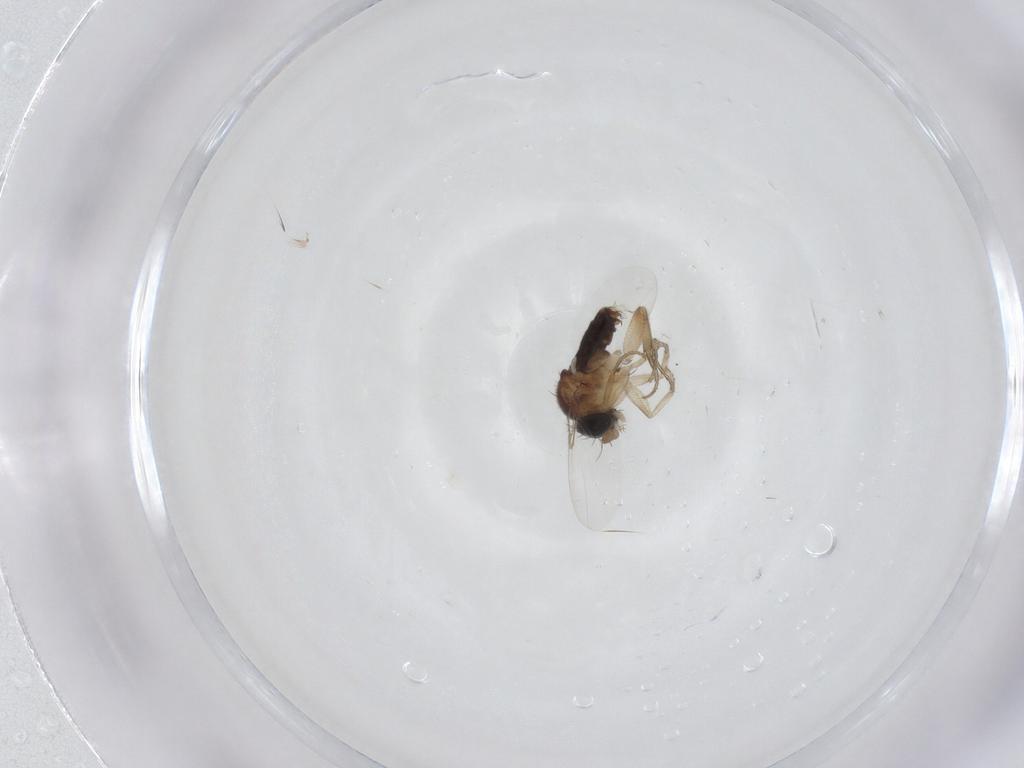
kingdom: Animalia
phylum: Arthropoda
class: Insecta
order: Diptera
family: Phoridae
